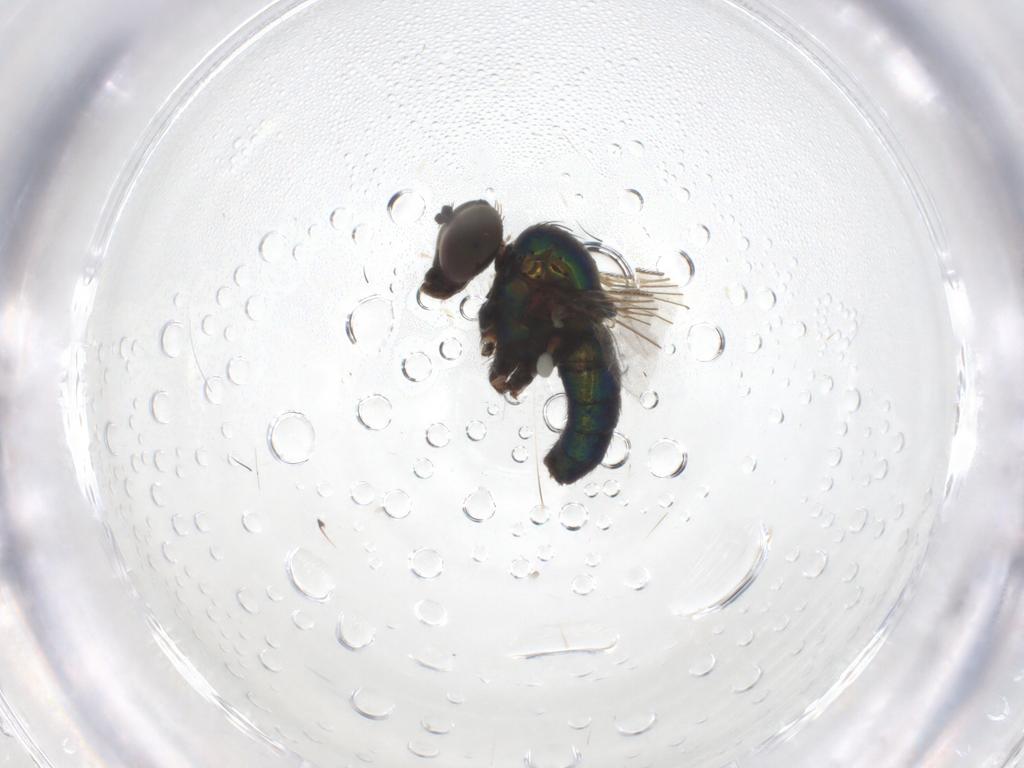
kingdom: Animalia
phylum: Arthropoda
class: Insecta
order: Diptera
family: Dolichopodidae
